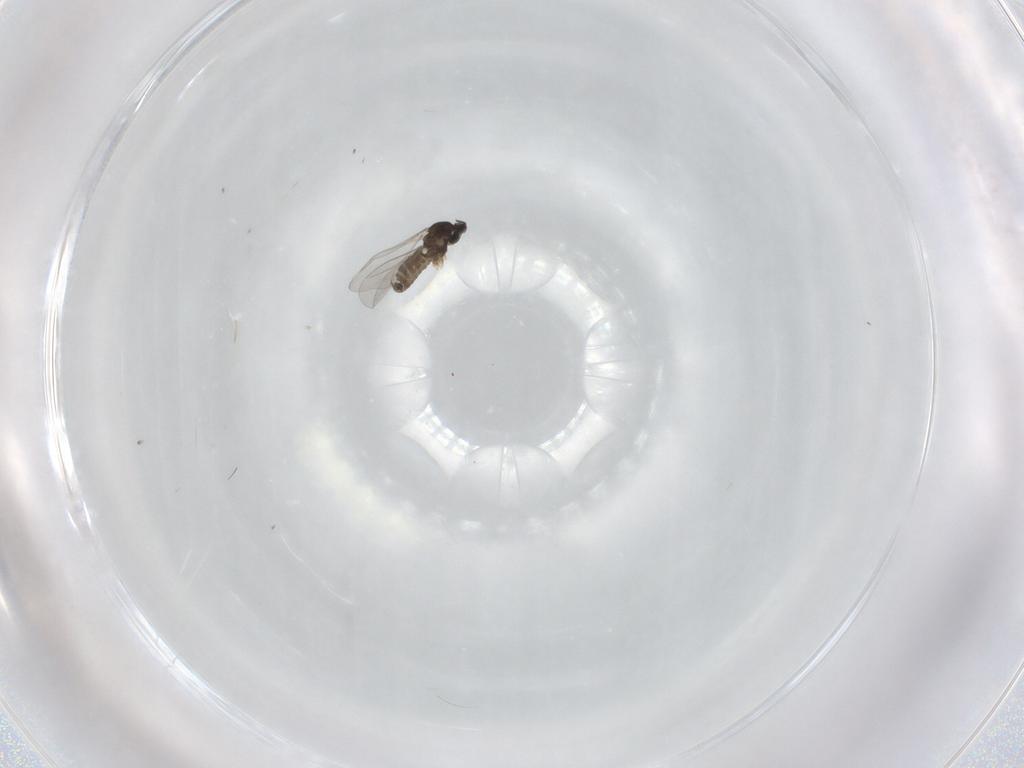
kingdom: Animalia
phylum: Arthropoda
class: Insecta
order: Diptera
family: Cecidomyiidae
